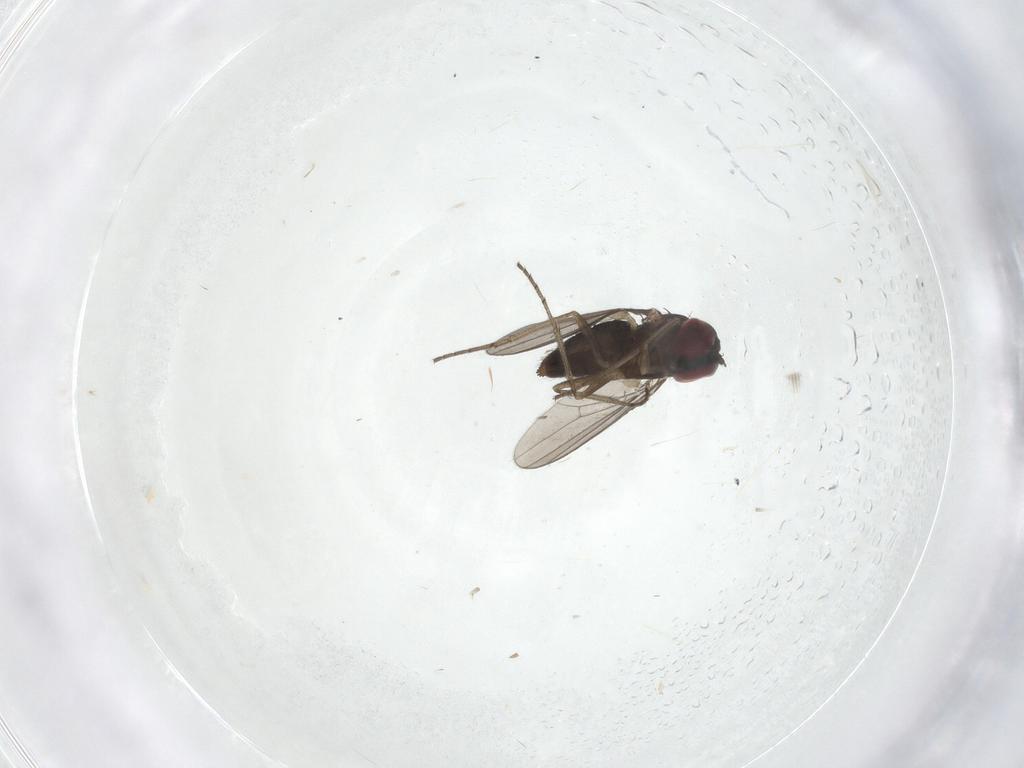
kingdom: Animalia
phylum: Arthropoda
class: Insecta
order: Diptera
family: Dolichopodidae
